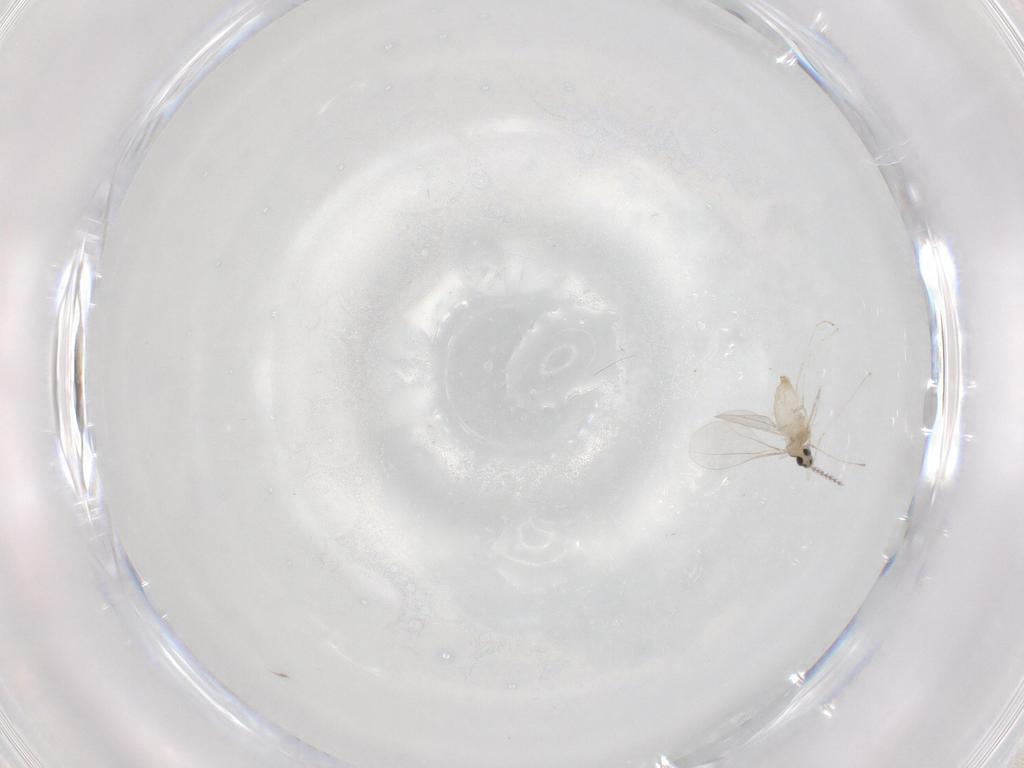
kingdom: Animalia
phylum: Arthropoda
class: Insecta
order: Diptera
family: Cecidomyiidae
